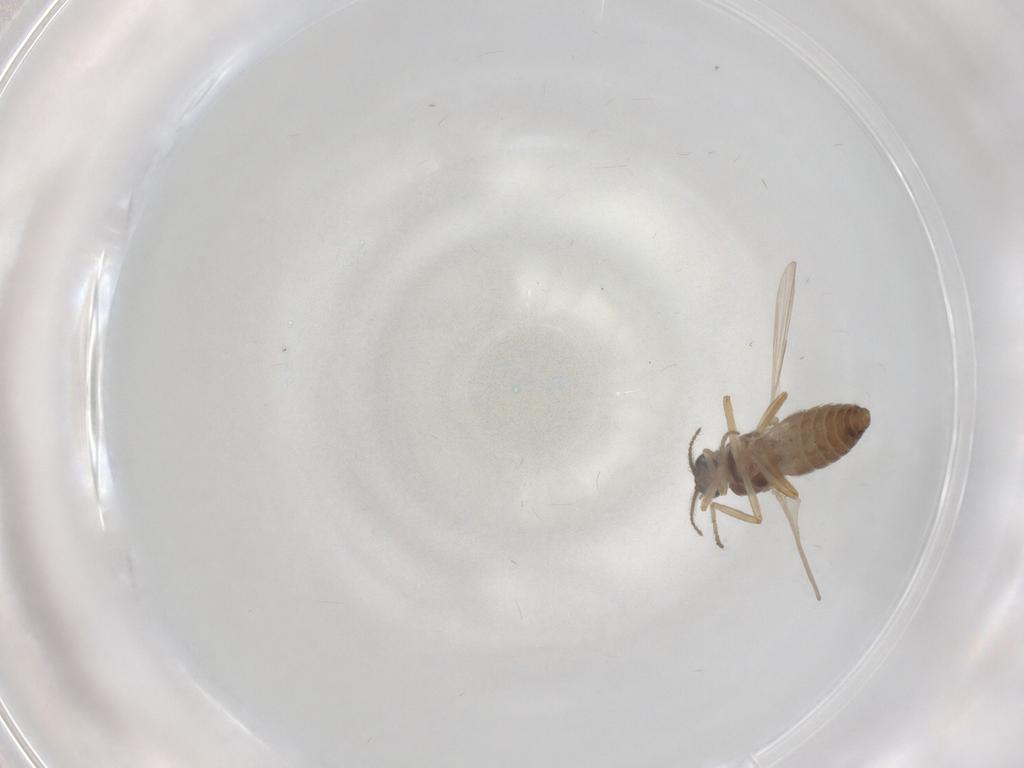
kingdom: Animalia
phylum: Arthropoda
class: Insecta
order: Diptera
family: Ceratopogonidae
